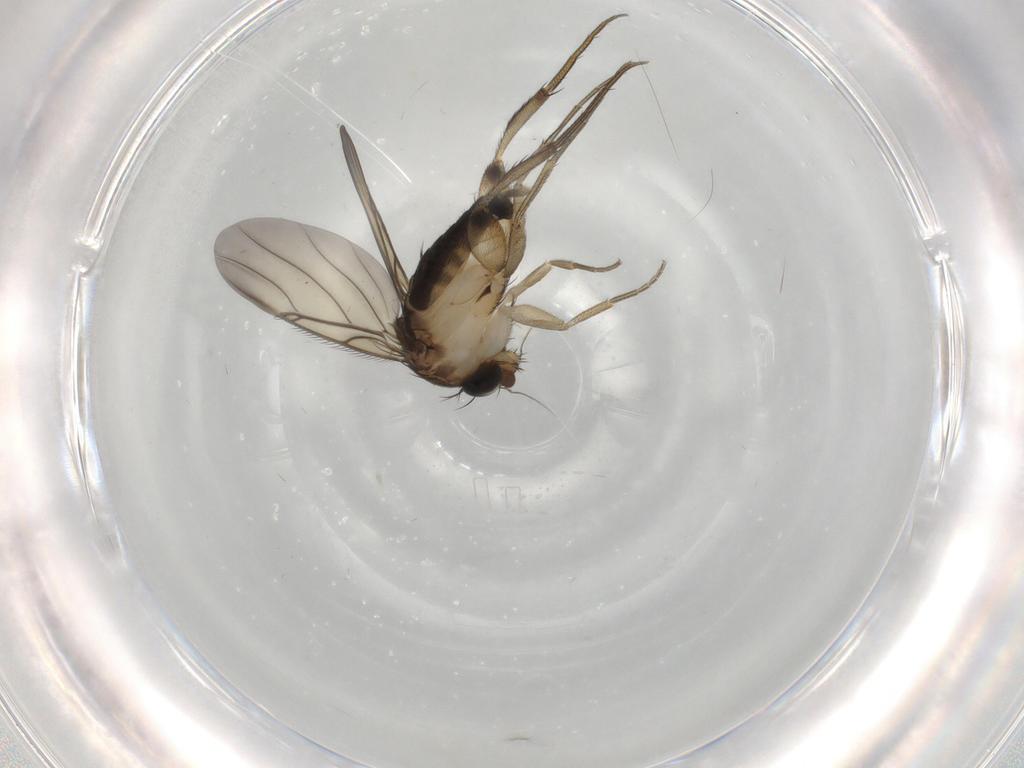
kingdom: Animalia
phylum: Arthropoda
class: Insecta
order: Diptera
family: Phoridae
